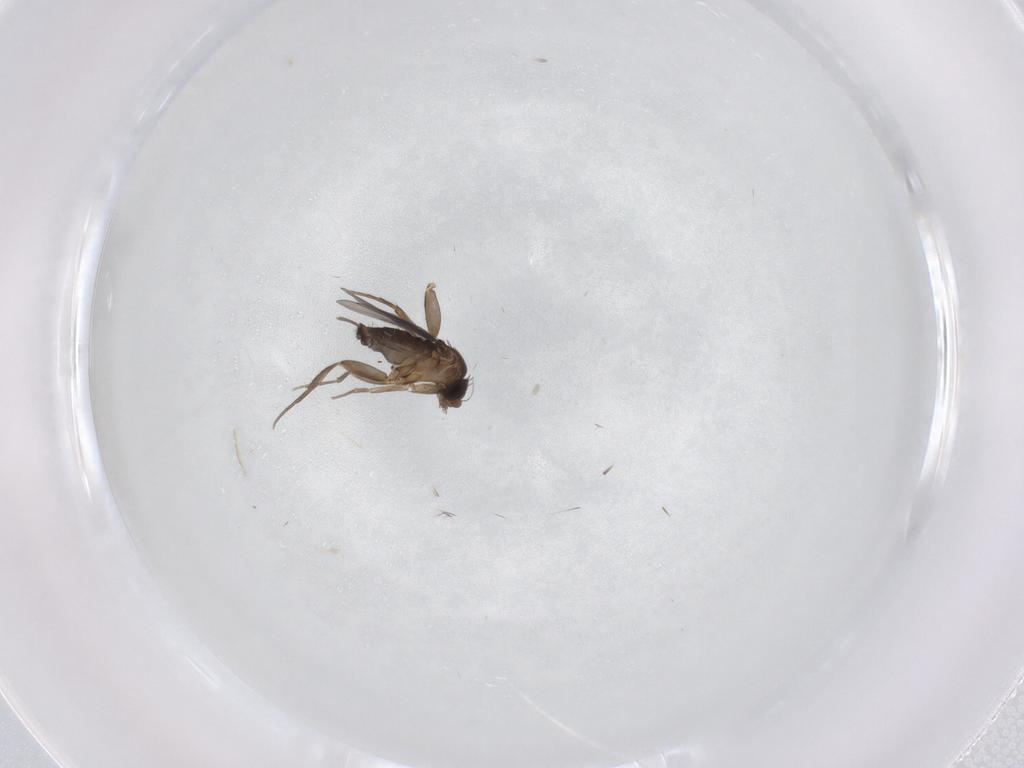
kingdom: Animalia
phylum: Arthropoda
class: Insecta
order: Diptera
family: Phoridae
